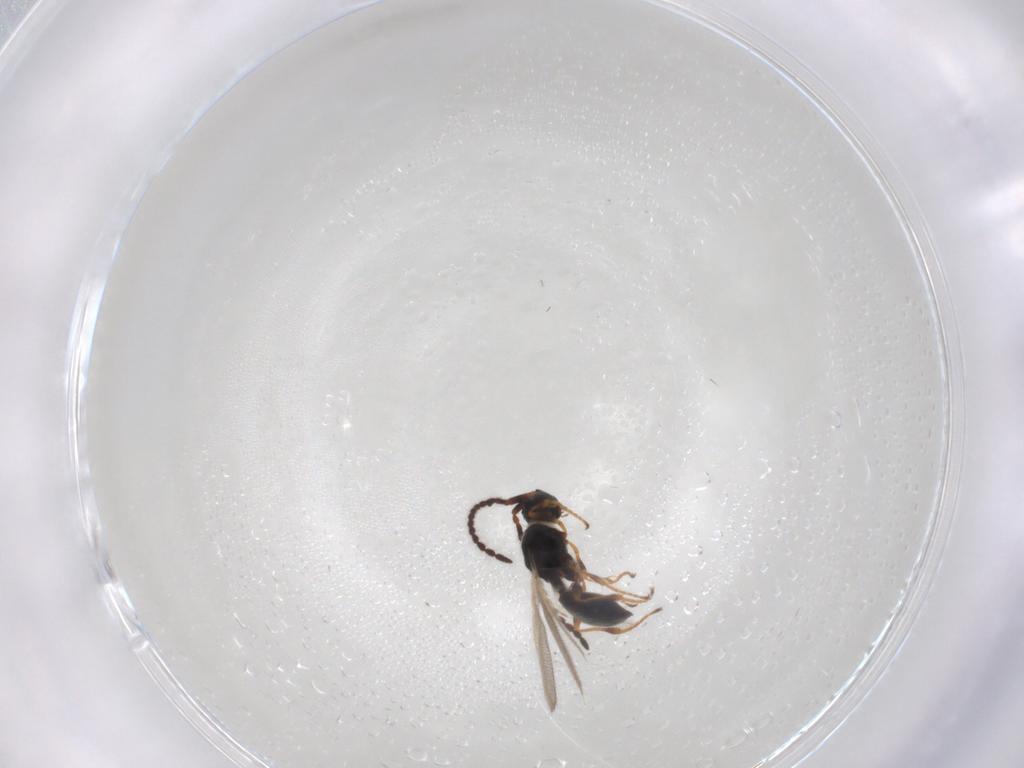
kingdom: Animalia
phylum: Arthropoda
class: Insecta
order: Hymenoptera
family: Diapriidae
